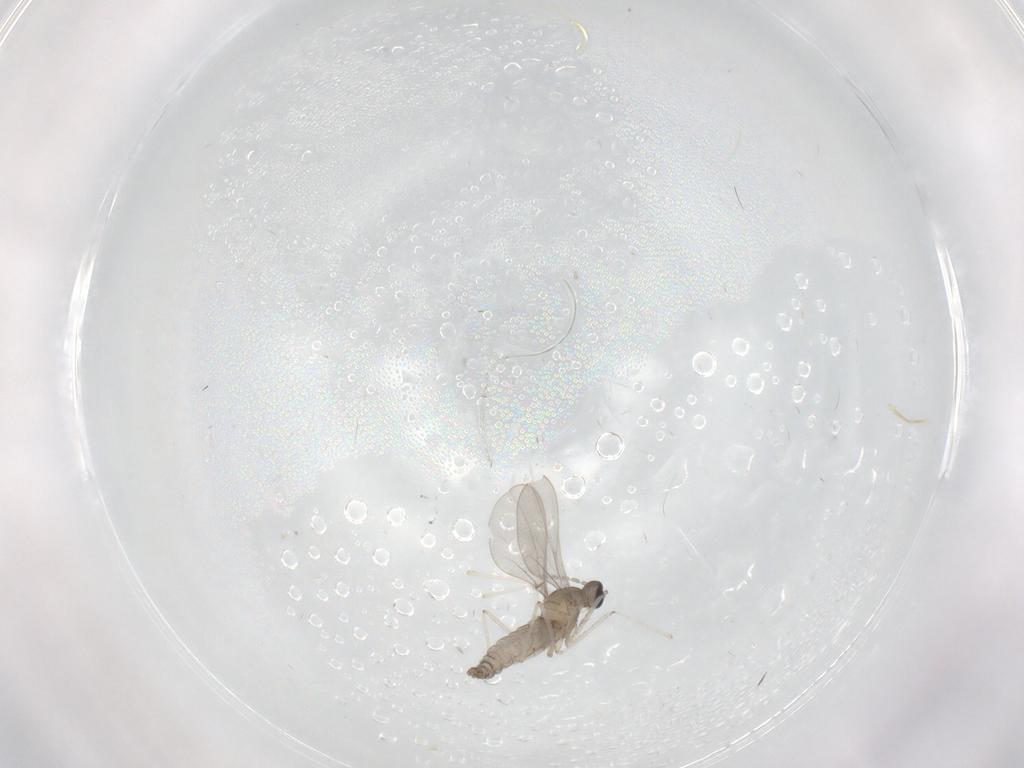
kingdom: Animalia
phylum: Arthropoda
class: Insecta
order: Diptera
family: Cecidomyiidae
